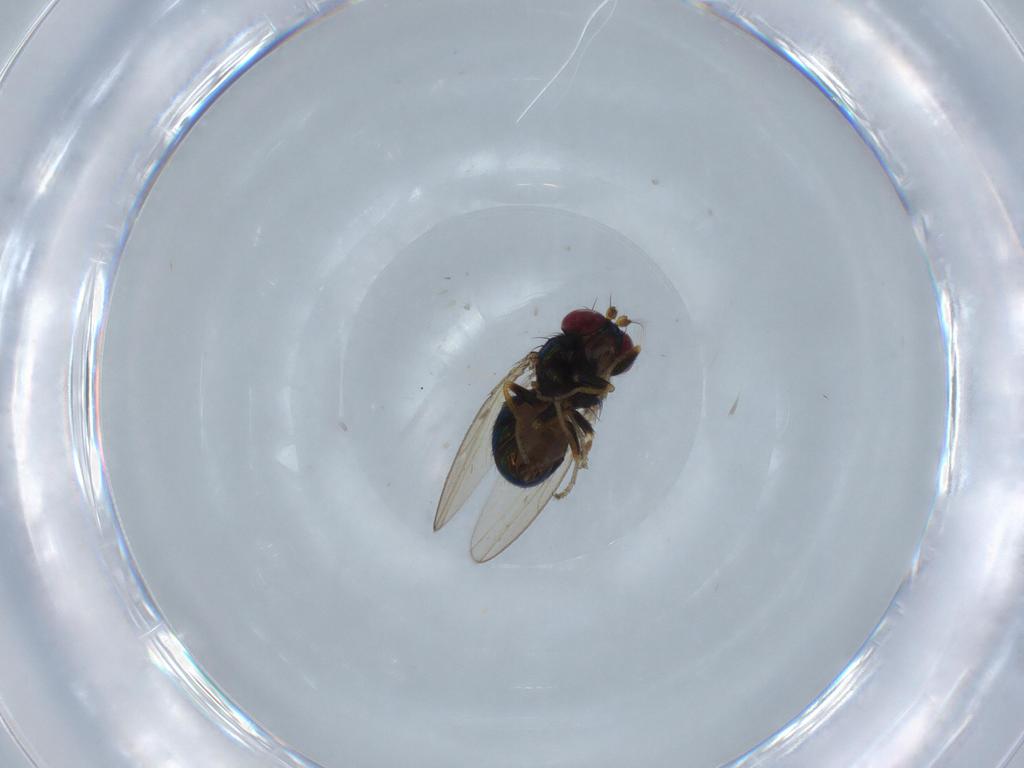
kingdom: Animalia
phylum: Arthropoda
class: Insecta
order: Diptera
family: Ephydridae
